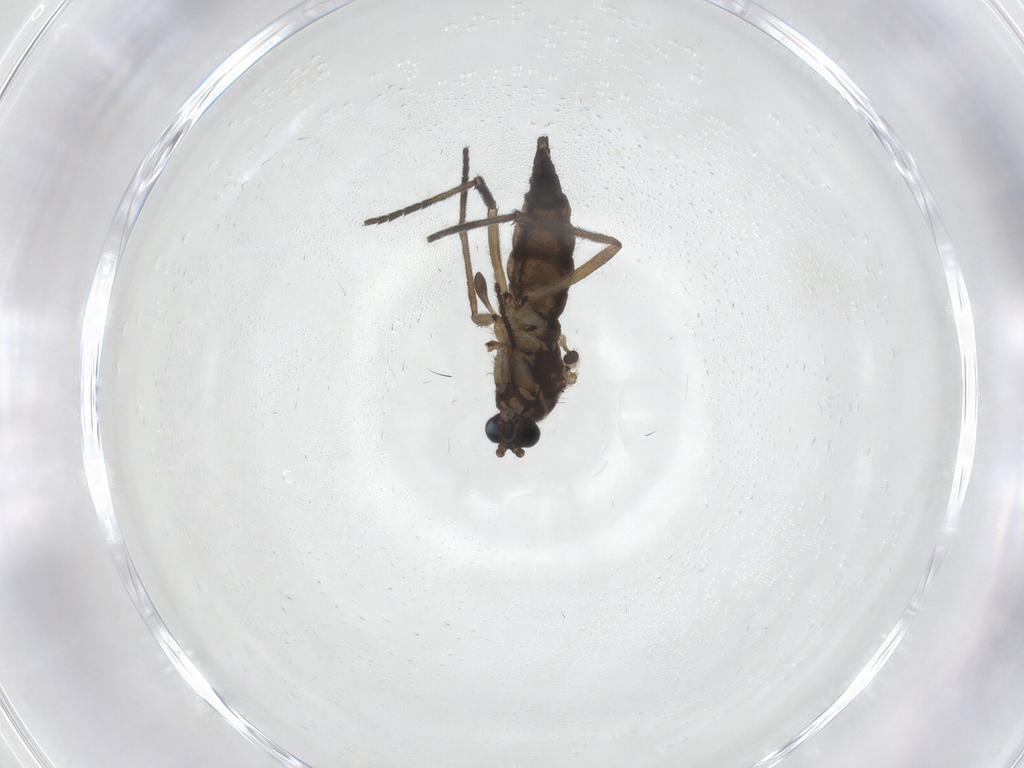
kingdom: Animalia
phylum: Arthropoda
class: Insecta
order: Diptera
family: Sciaridae
